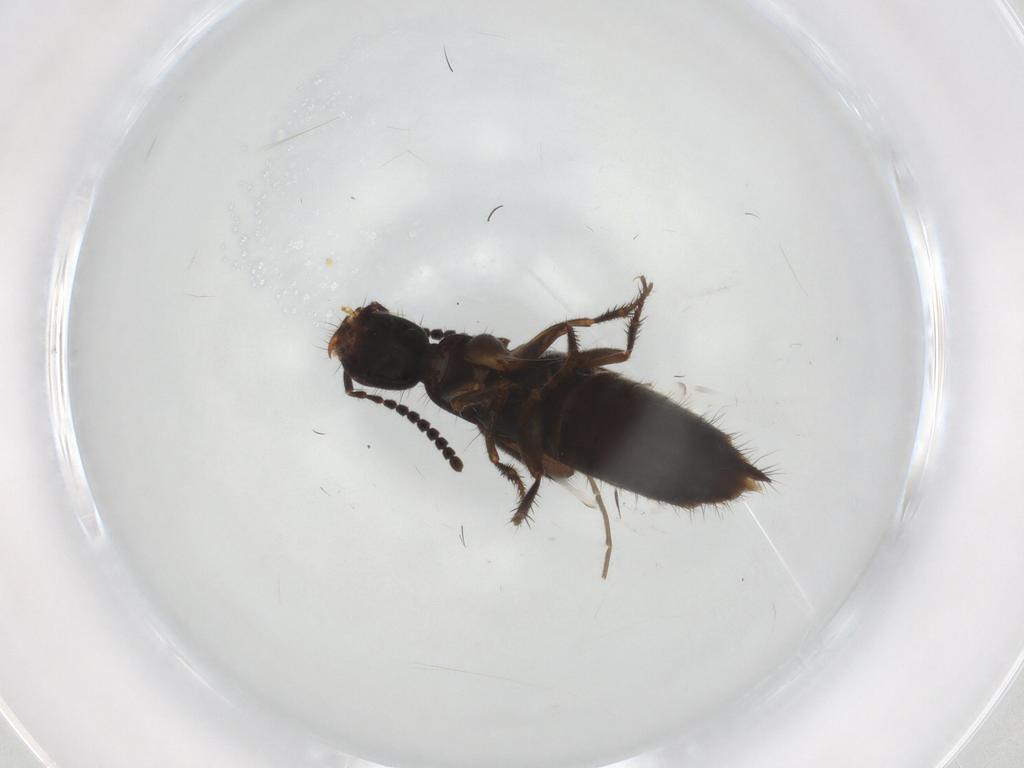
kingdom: Animalia
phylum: Arthropoda
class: Insecta
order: Coleoptera
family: Staphylinidae
